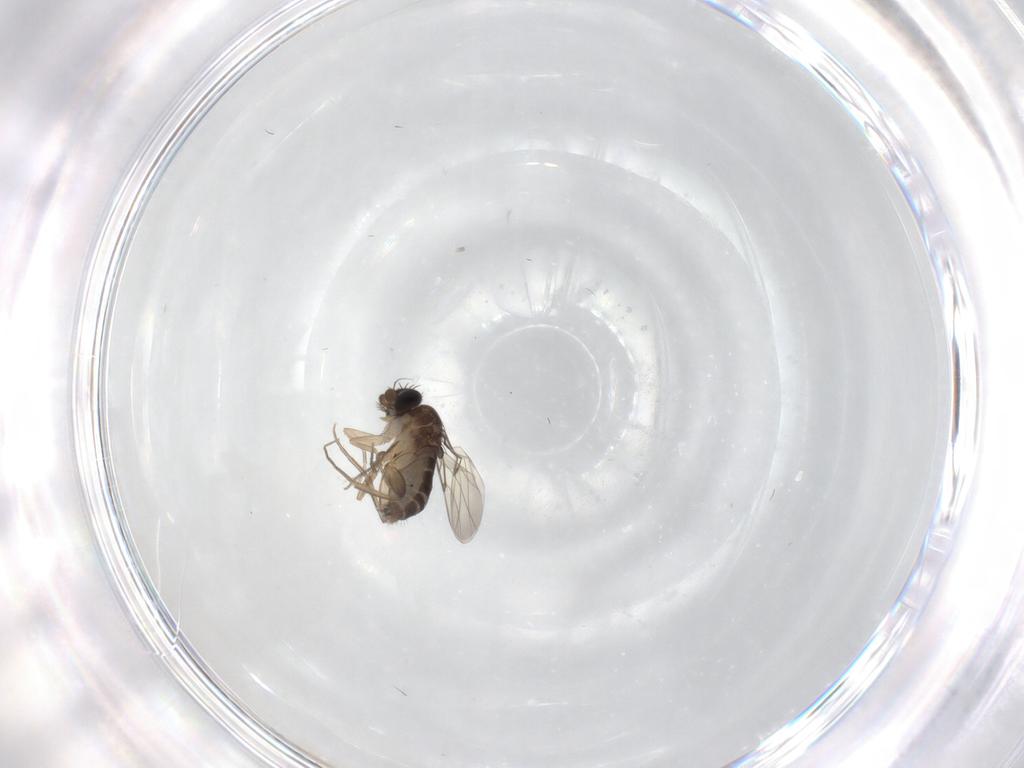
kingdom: Animalia
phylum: Arthropoda
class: Insecta
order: Diptera
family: Phoridae
